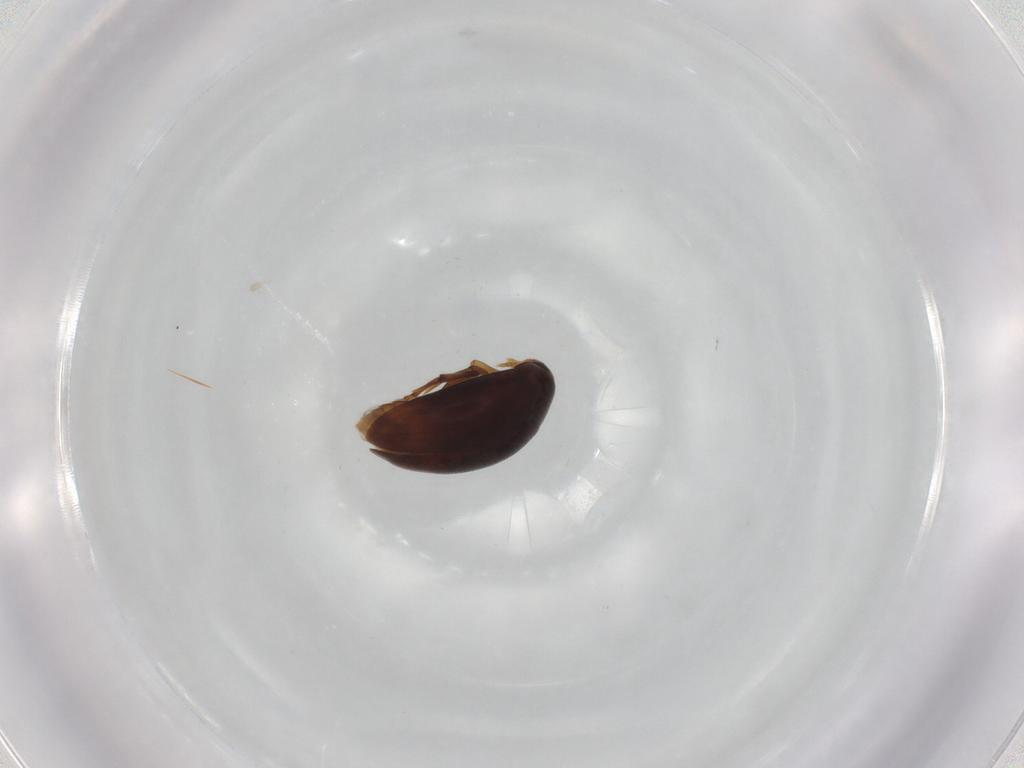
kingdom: Animalia
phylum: Arthropoda
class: Insecta
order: Coleoptera
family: Melandryidae
